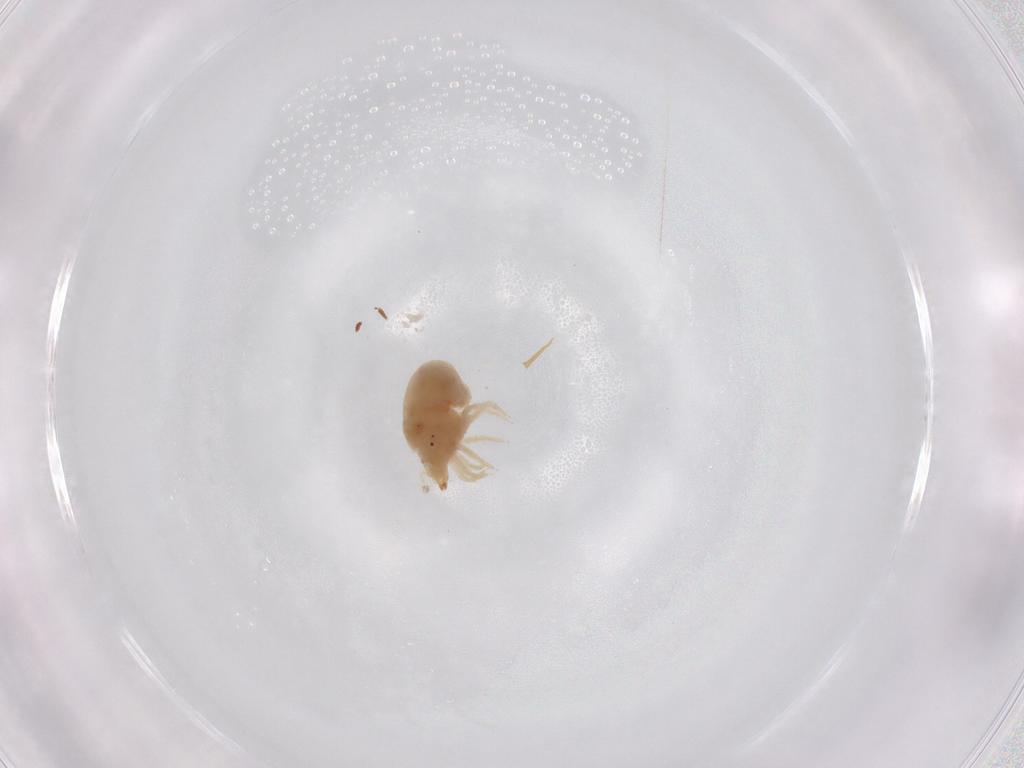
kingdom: Animalia
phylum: Arthropoda
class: Arachnida
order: Trombidiformes
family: Bdellidae
